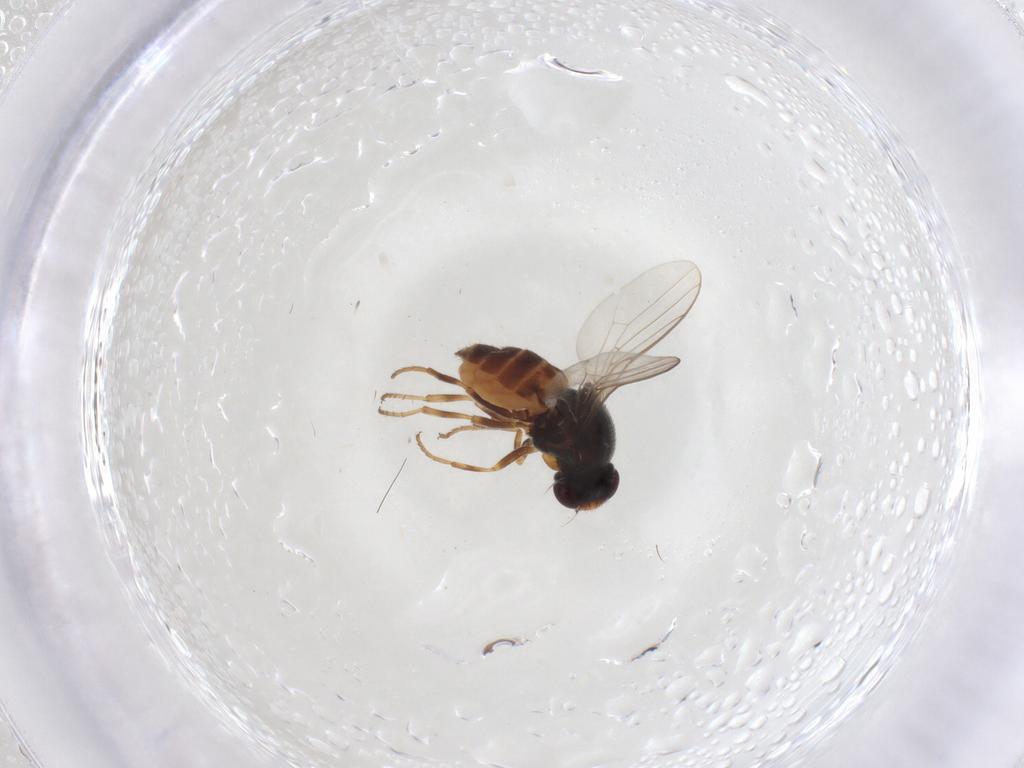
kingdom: Animalia
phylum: Arthropoda
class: Insecta
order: Diptera
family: Chloropidae
